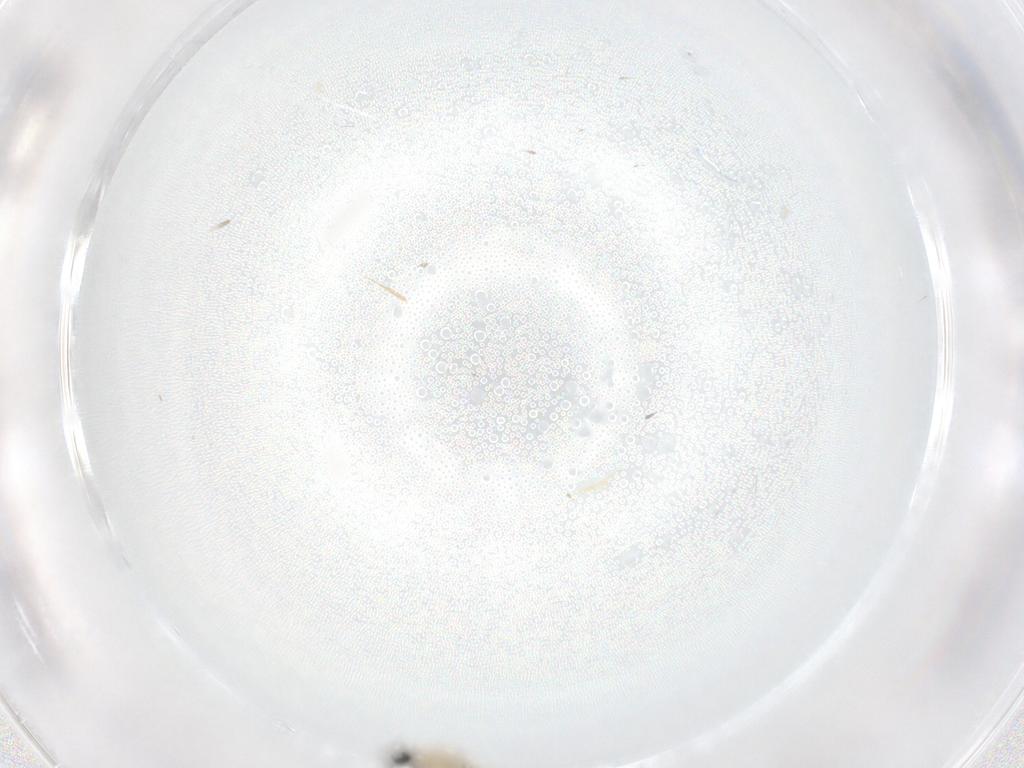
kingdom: Animalia
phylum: Arthropoda
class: Insecta
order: Diptera
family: Cecidomyiidae
